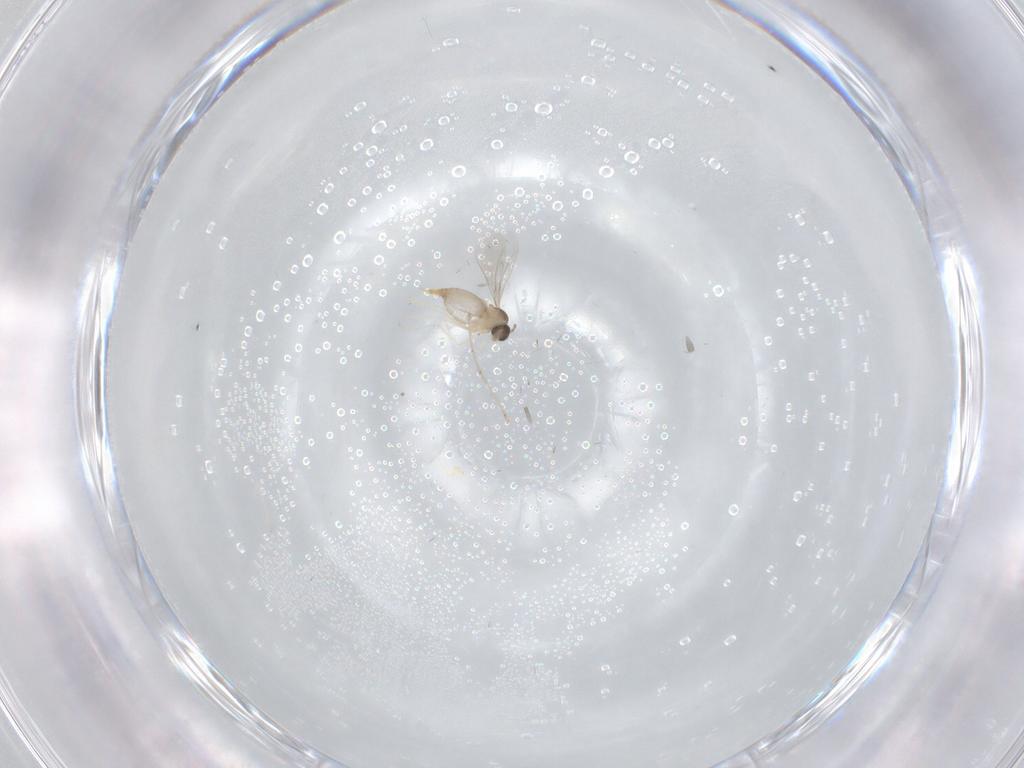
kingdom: Animalia
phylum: Arthropoda
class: Insecta
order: Diptera
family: Cecidomyiidae
